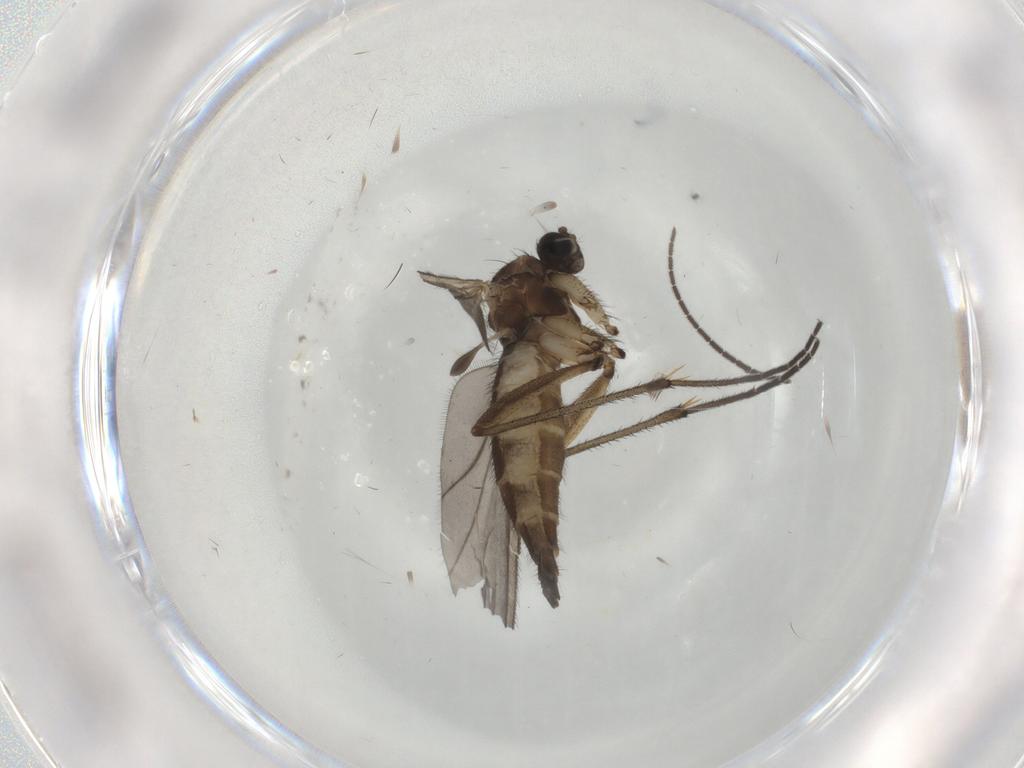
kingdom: Animalia
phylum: Arthropoda
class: Insecta
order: Diptera
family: Sciaridae
